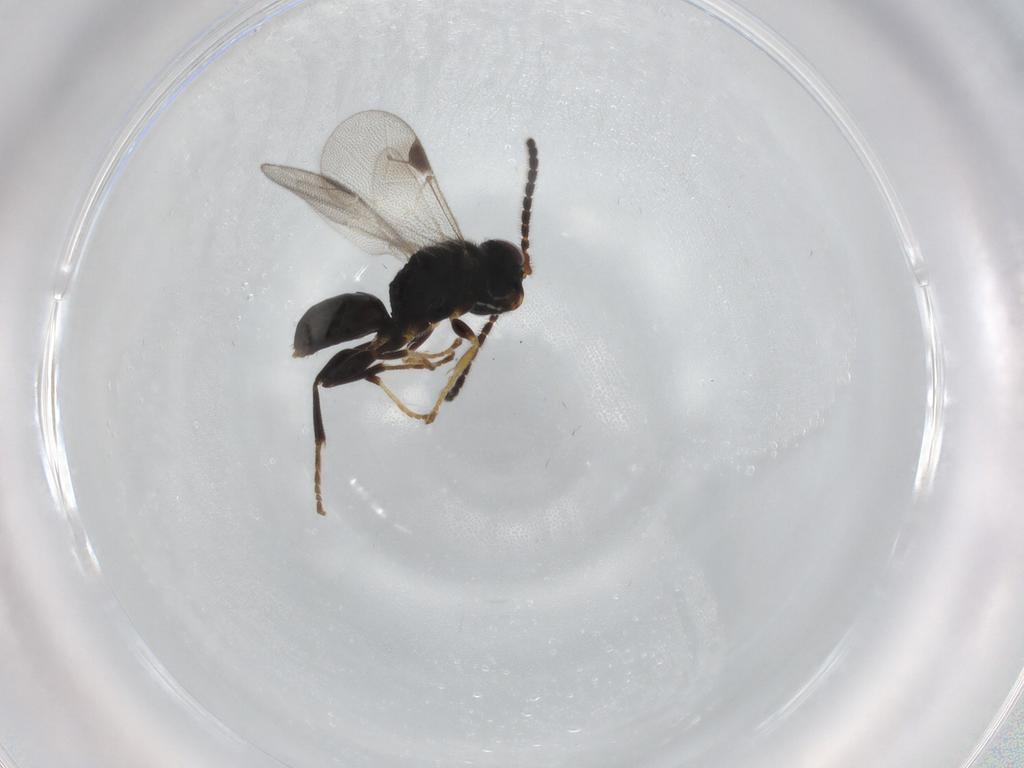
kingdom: Animalia
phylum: Arthropoda
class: Insecta
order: Hymenoptera
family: Dryinidae
